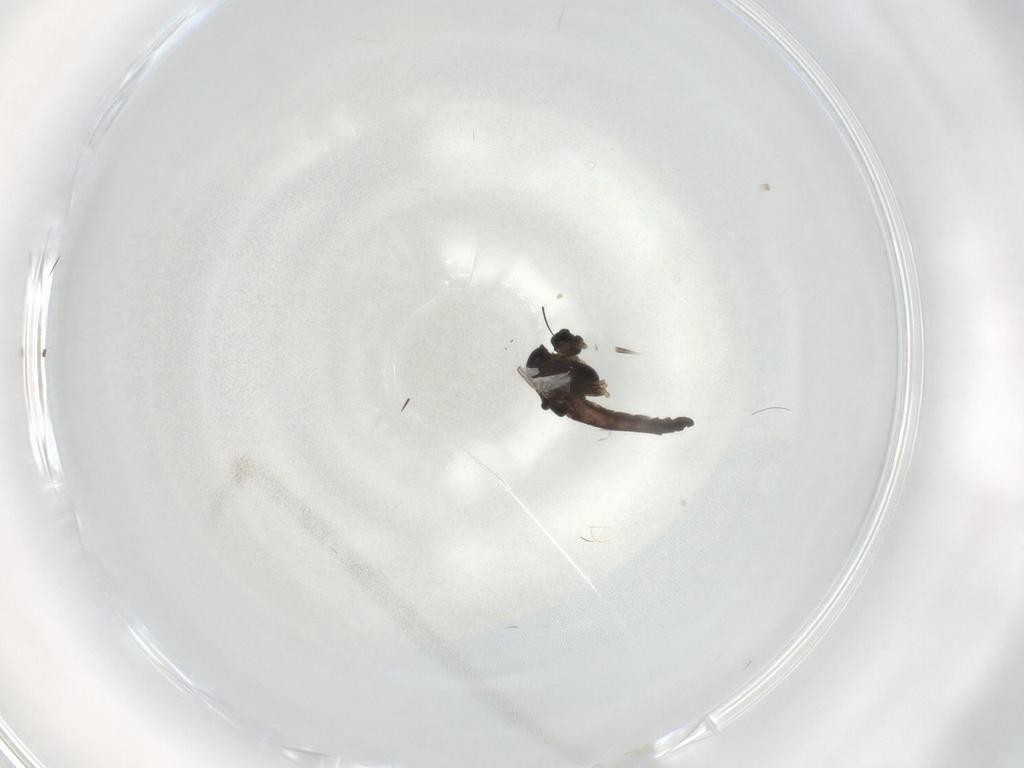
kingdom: Animalia
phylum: Arthropoda
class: Insecta
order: Diptera
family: Chironomidae
